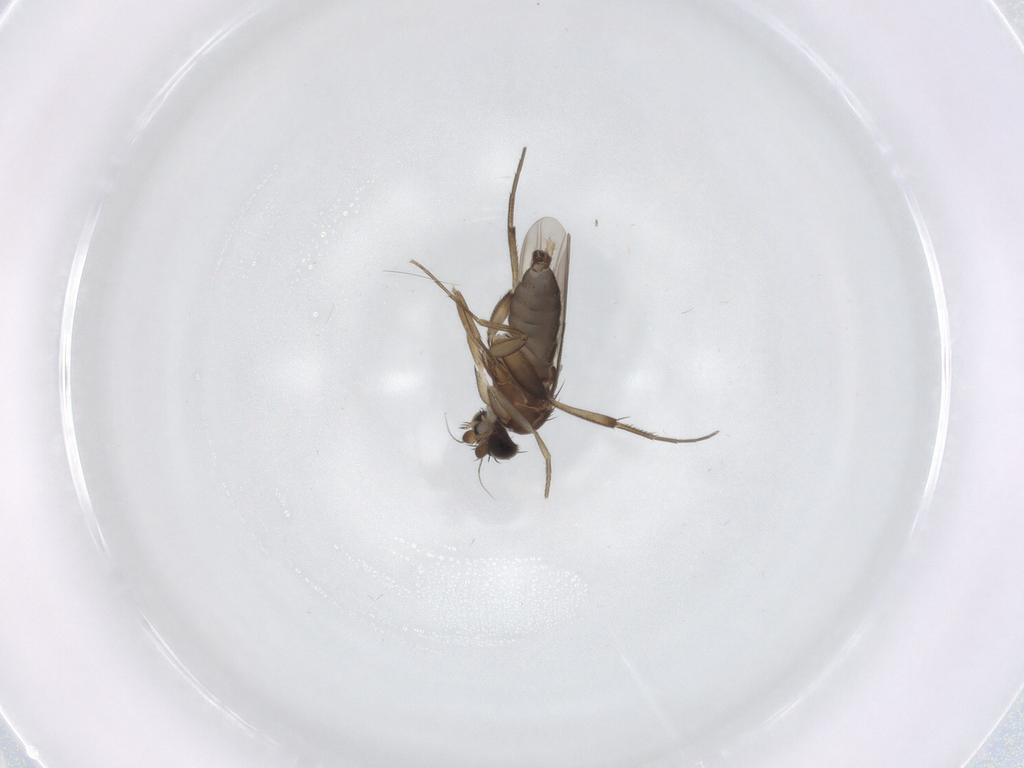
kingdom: Animalia
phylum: Arthropoda
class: Insecta
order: Diptera
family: Phoridae
